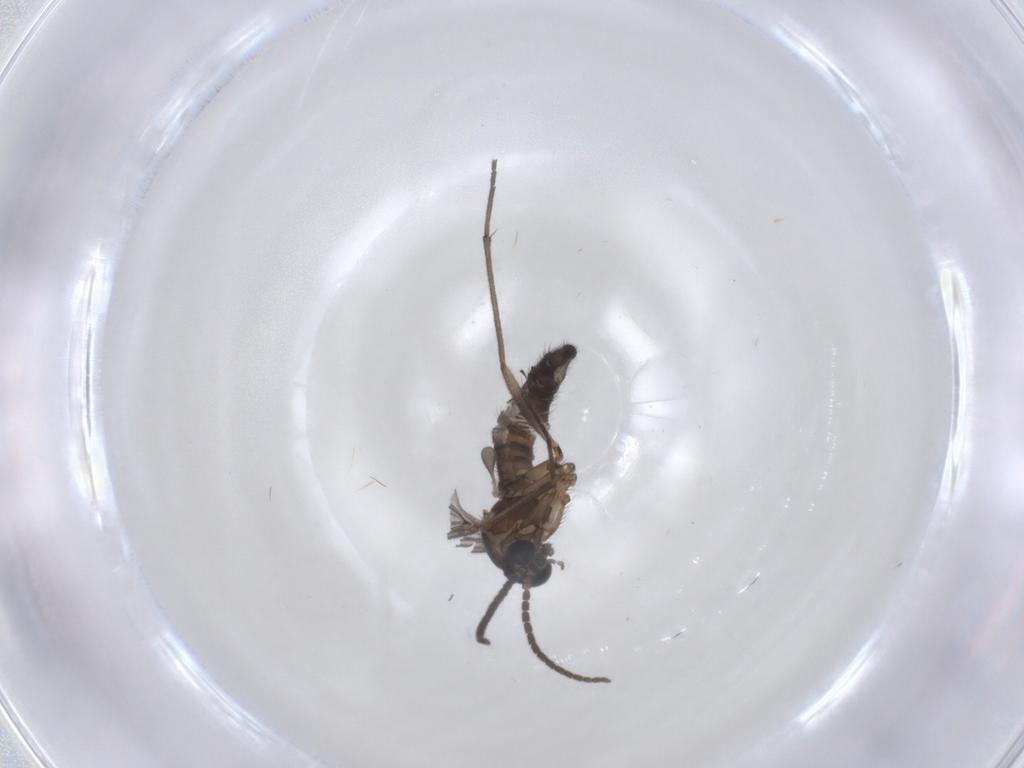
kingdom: Animalia
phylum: Arthropoda
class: Insecta
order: Diptera
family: Sciaridae
